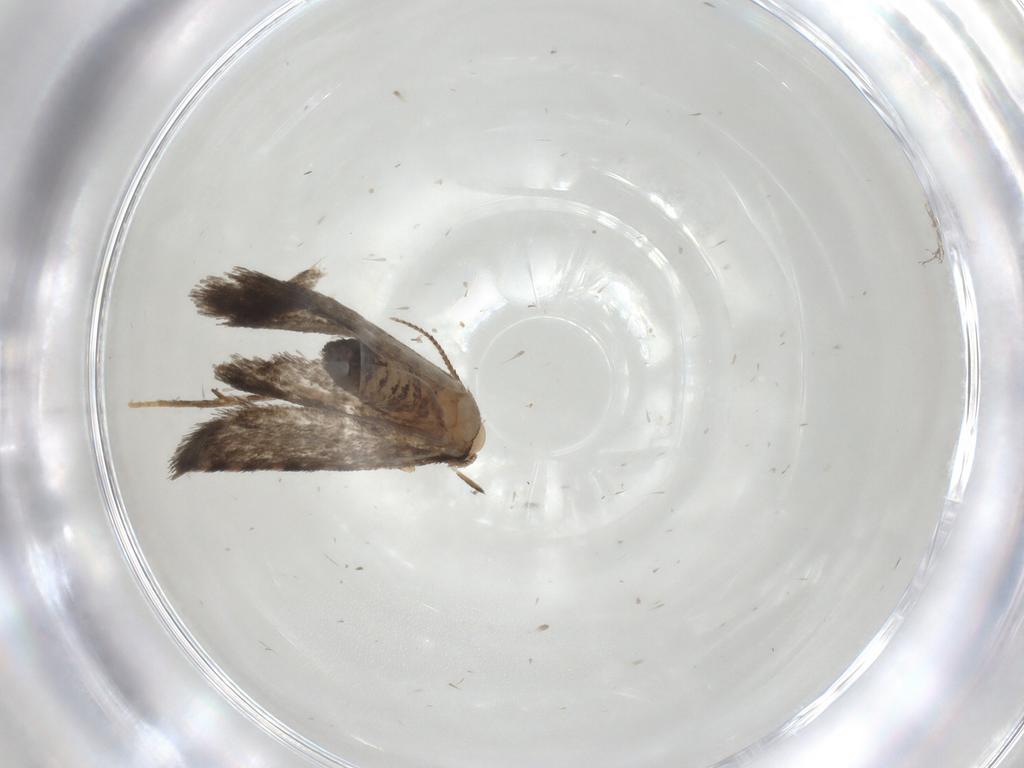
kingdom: Animalia
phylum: Arthropoda
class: Insecta
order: Lepidoptera
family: Psychidae
